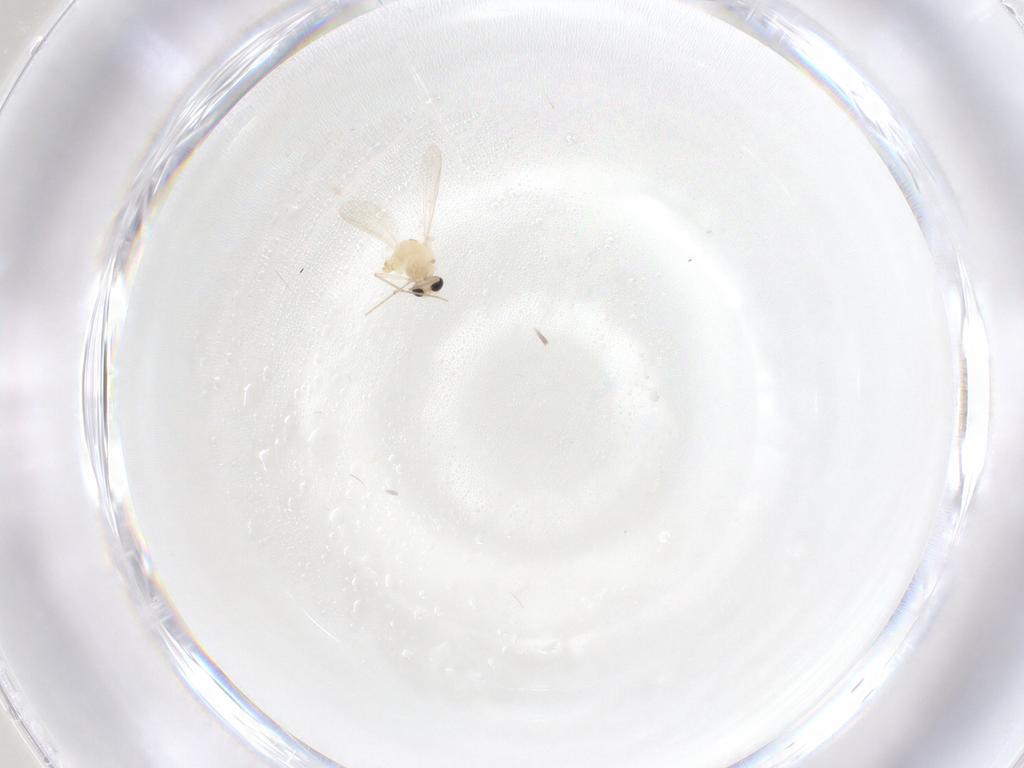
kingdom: Animalia
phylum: Arthropoda
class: Insecta
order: Diptera
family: Chironomidae
